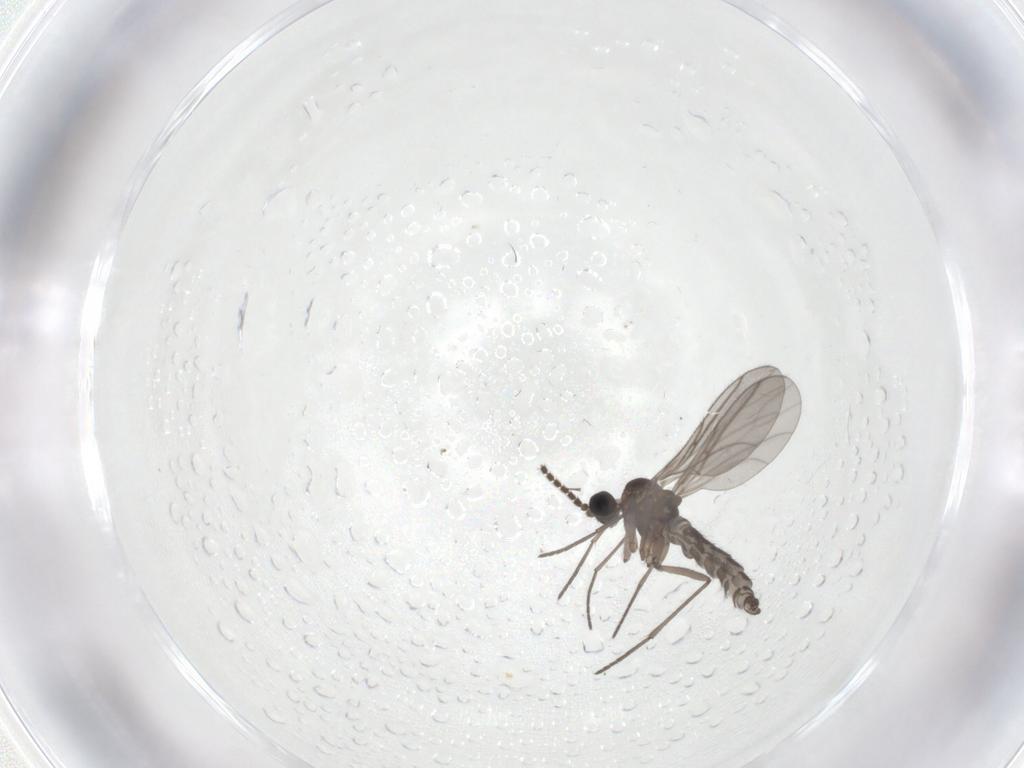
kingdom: Animalia
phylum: Arthropoda
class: Insecta
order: Diptera
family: Sciaridae
